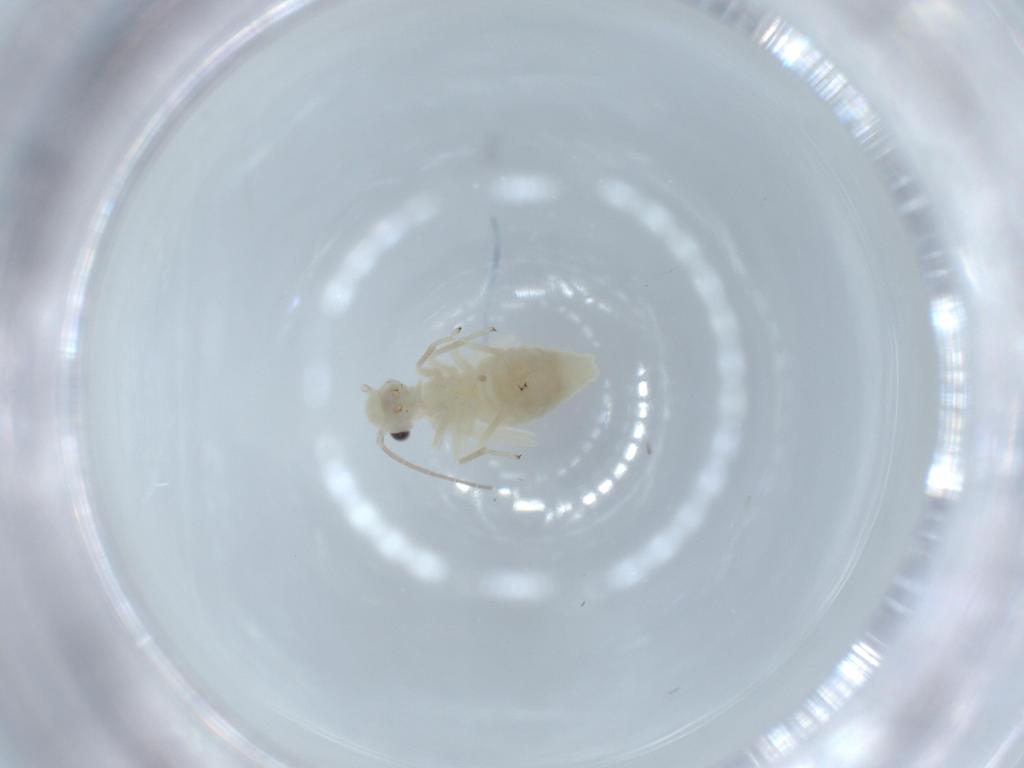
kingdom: Animalia
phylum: Arthropoda
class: Insecta
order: Psocodea
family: Caeciliusidae
